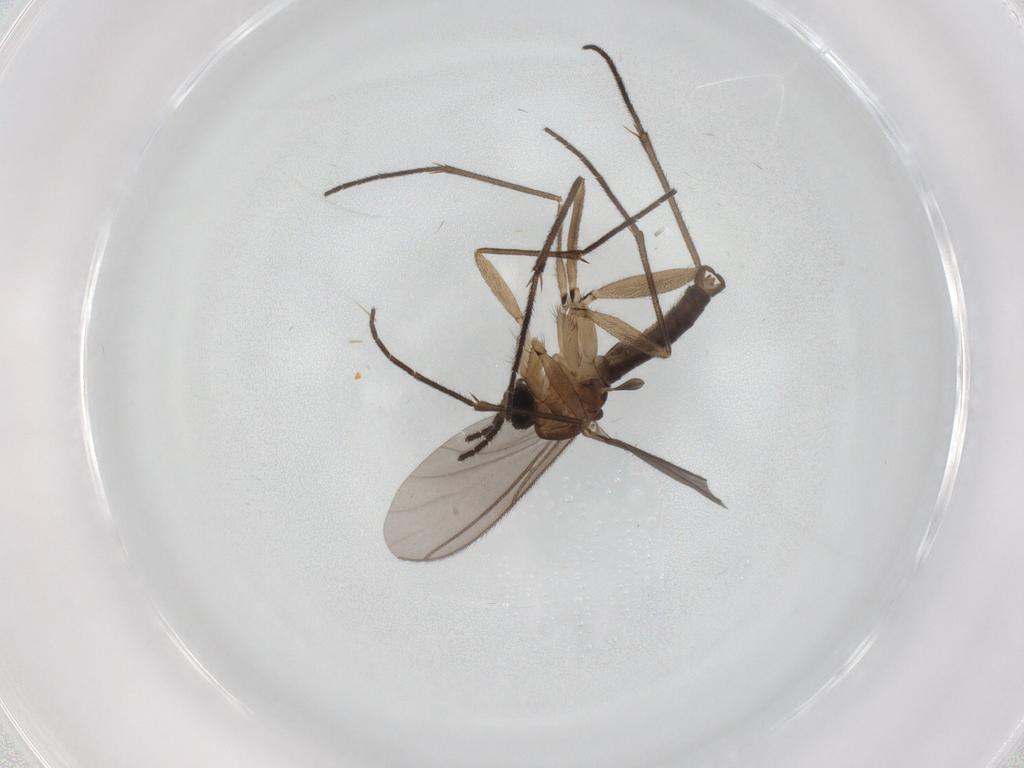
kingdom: Animalia
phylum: Arthropoda
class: Insecta
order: Diptera
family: Sciaridae
